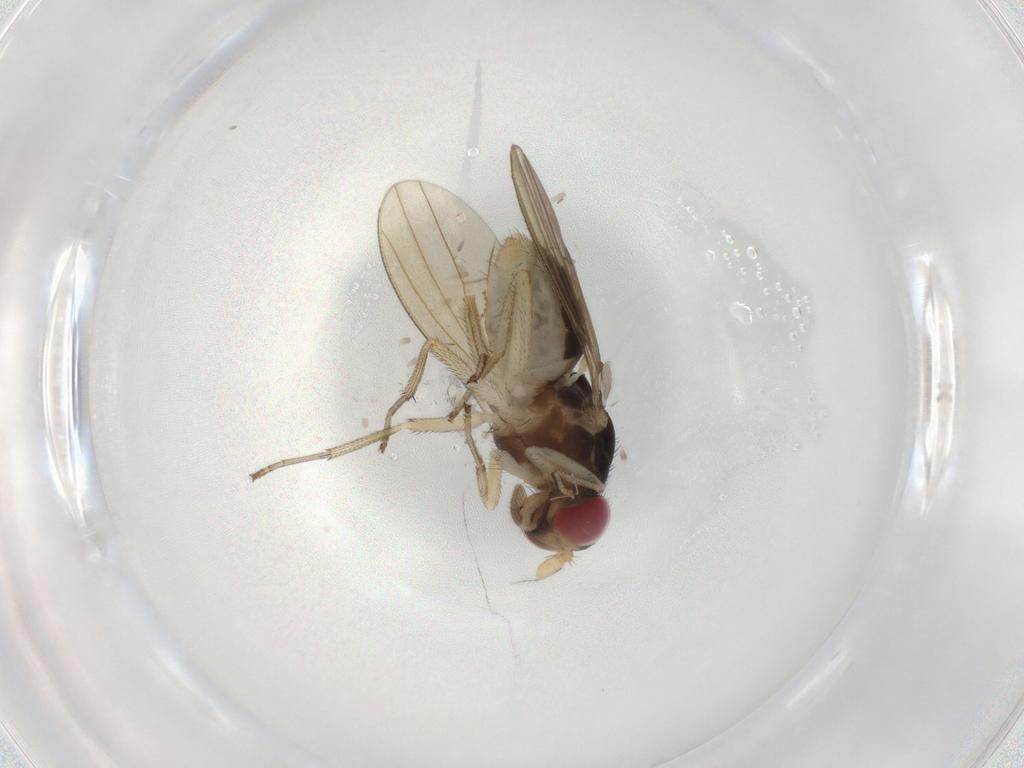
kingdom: Animalia
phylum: Arthropoda
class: Insecta
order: Diptera
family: Lauxaniidae
